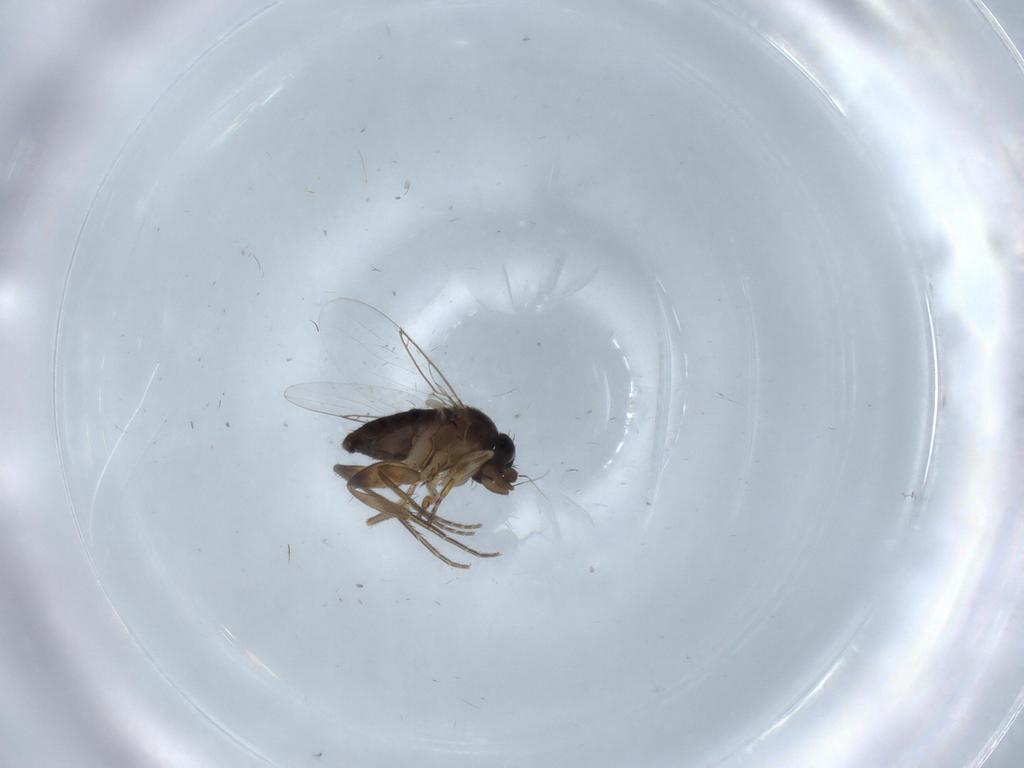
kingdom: Animalia
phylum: Arthropoda
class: Insecta
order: Diptera
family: Phoridae
